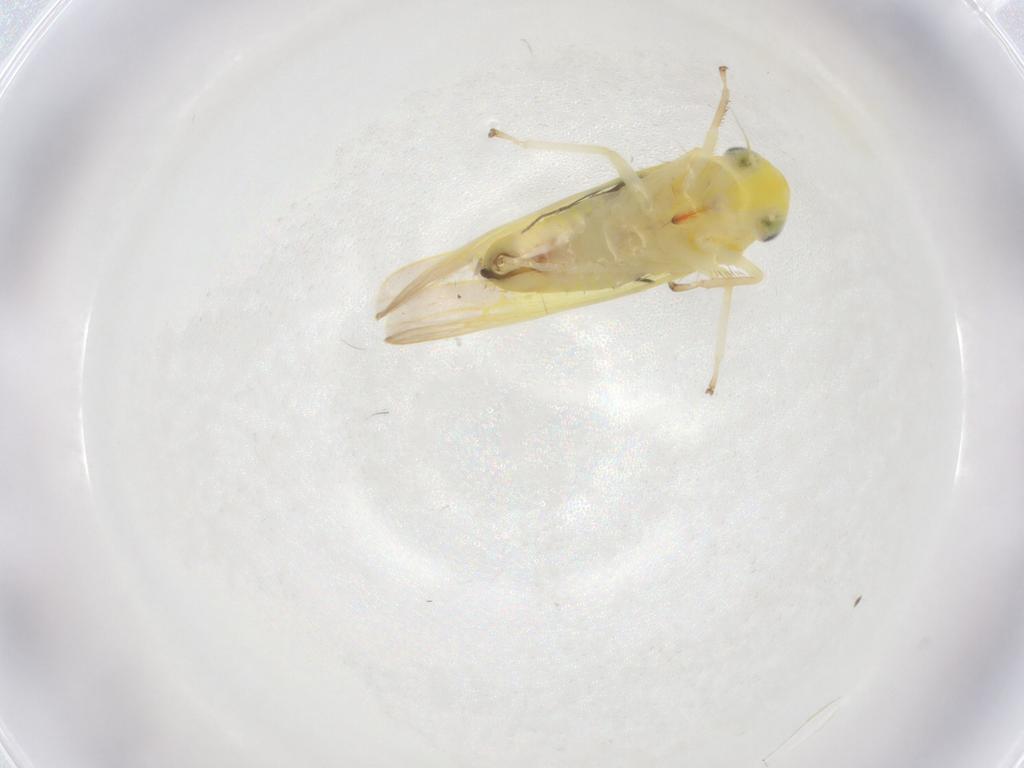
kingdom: Animalia
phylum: Arthropoda
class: Insecta
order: Hemiptera
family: Cicadellidae
